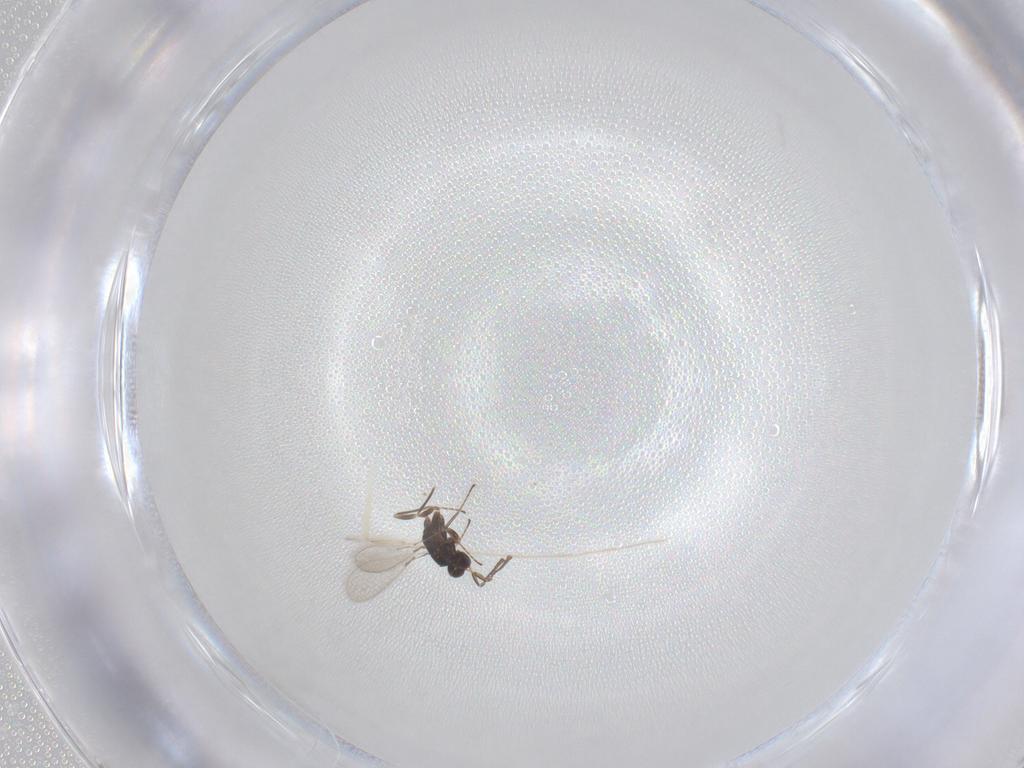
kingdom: Animalia
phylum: Arthropoda
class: Insecta
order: Hymenoptera
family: Mymaridae
